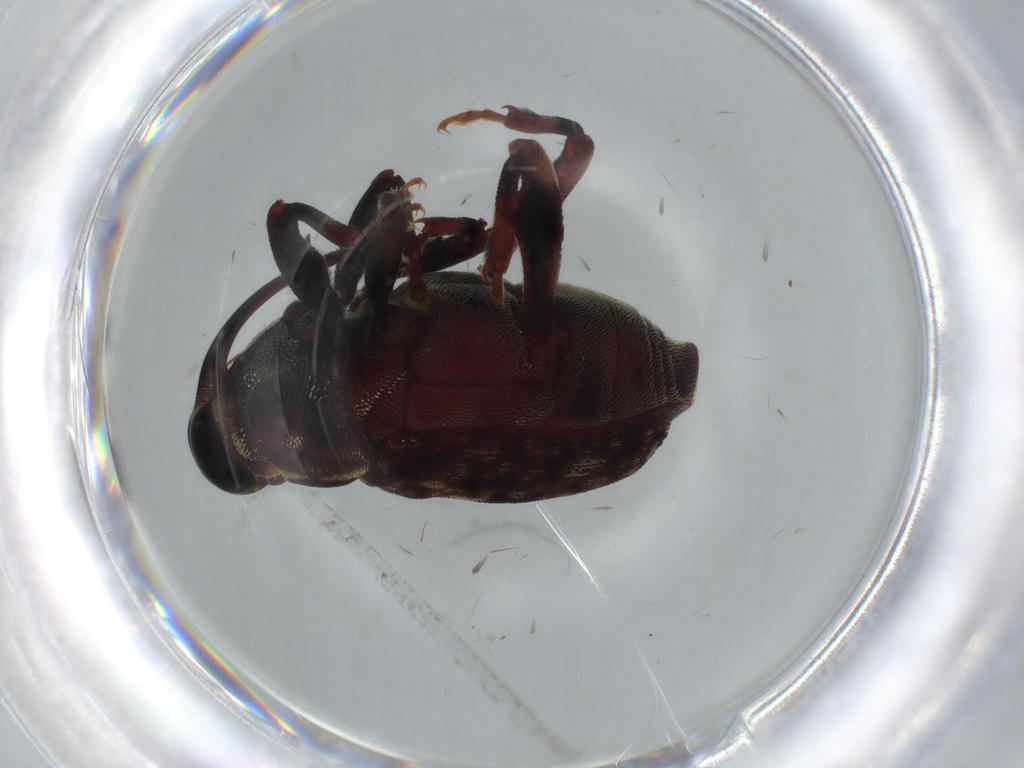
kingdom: Animalia
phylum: Arthropoda
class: Insecta
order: Coleoptera
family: Curculionidae
